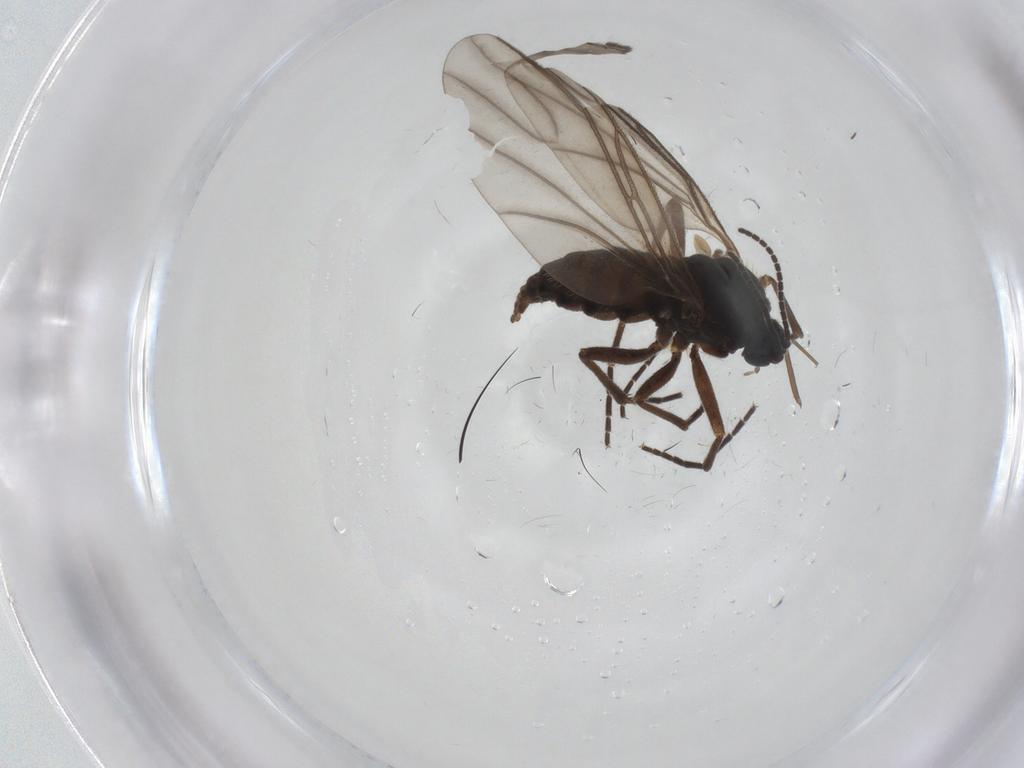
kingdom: Animalia
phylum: Arthropoda
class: Insecta
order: Diptera
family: Sciaridae
